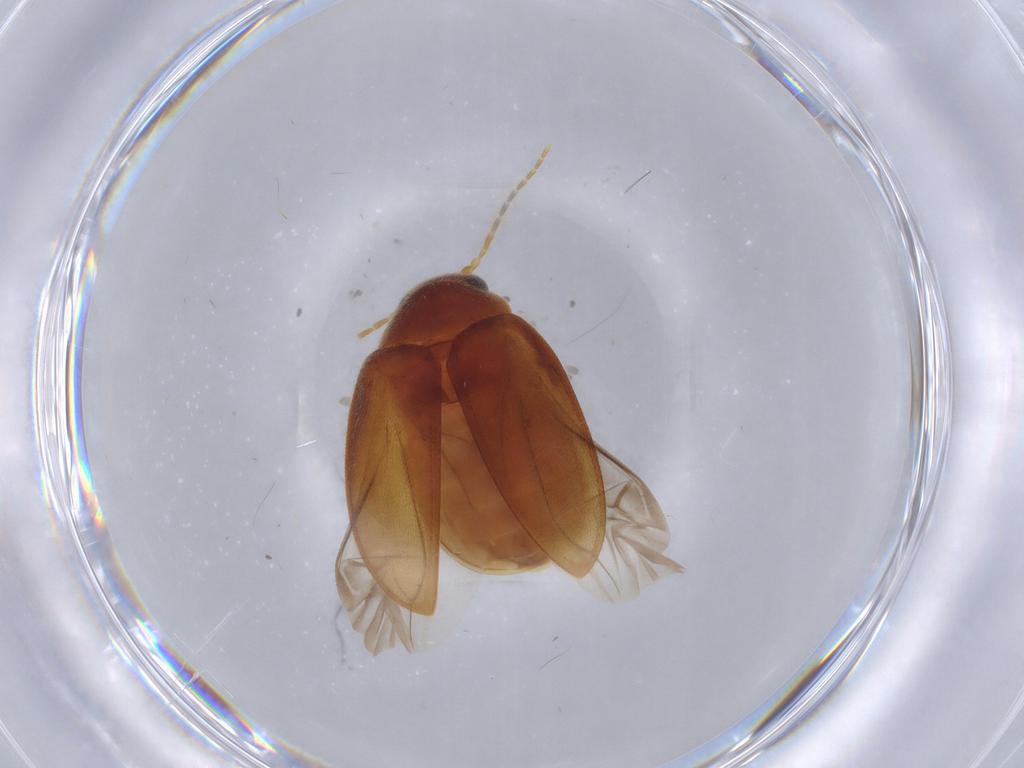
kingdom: Animalia
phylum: Arthropoda
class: Insecta
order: Coleoptera
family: Scirtidae
